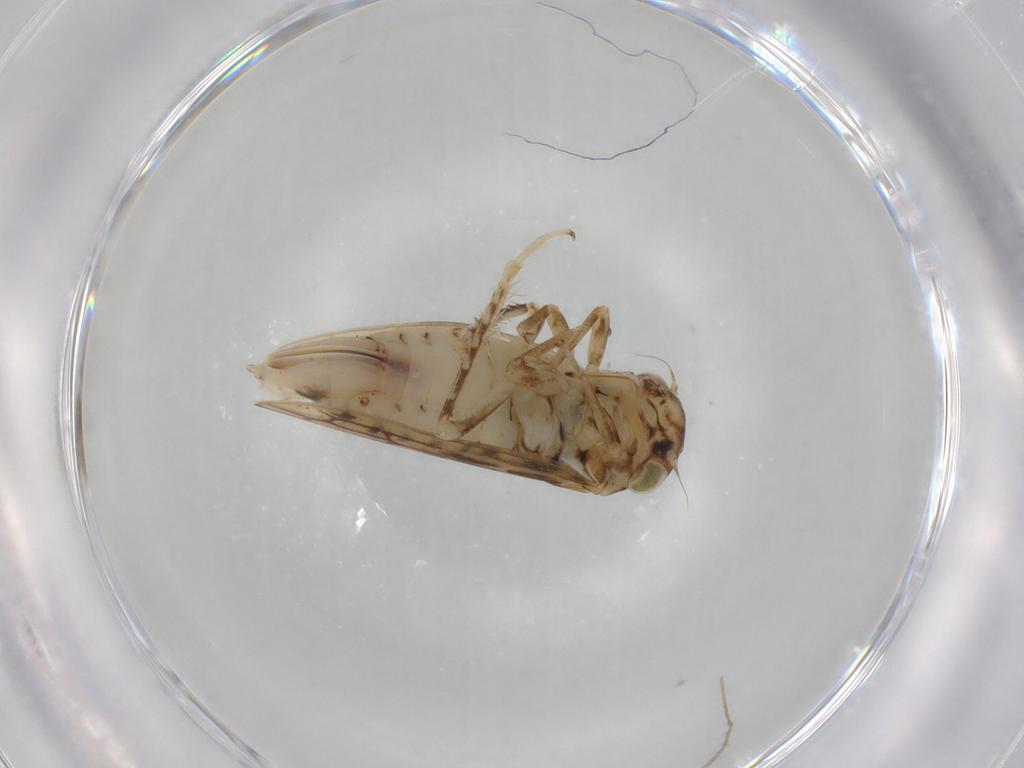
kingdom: Animalia
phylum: Arthropoda
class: Insecta
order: Hemiptera
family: Cicadellidae
